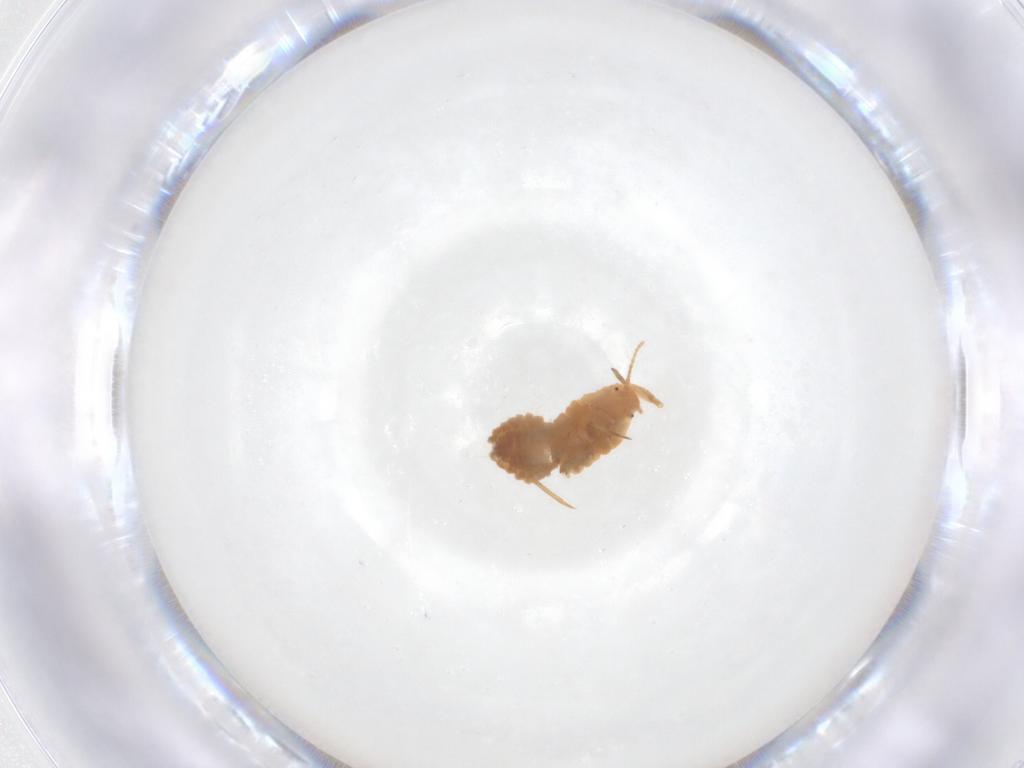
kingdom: Animalia
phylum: Arthropoda
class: Insecta
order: Hemiptera
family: Pseudococcidae
